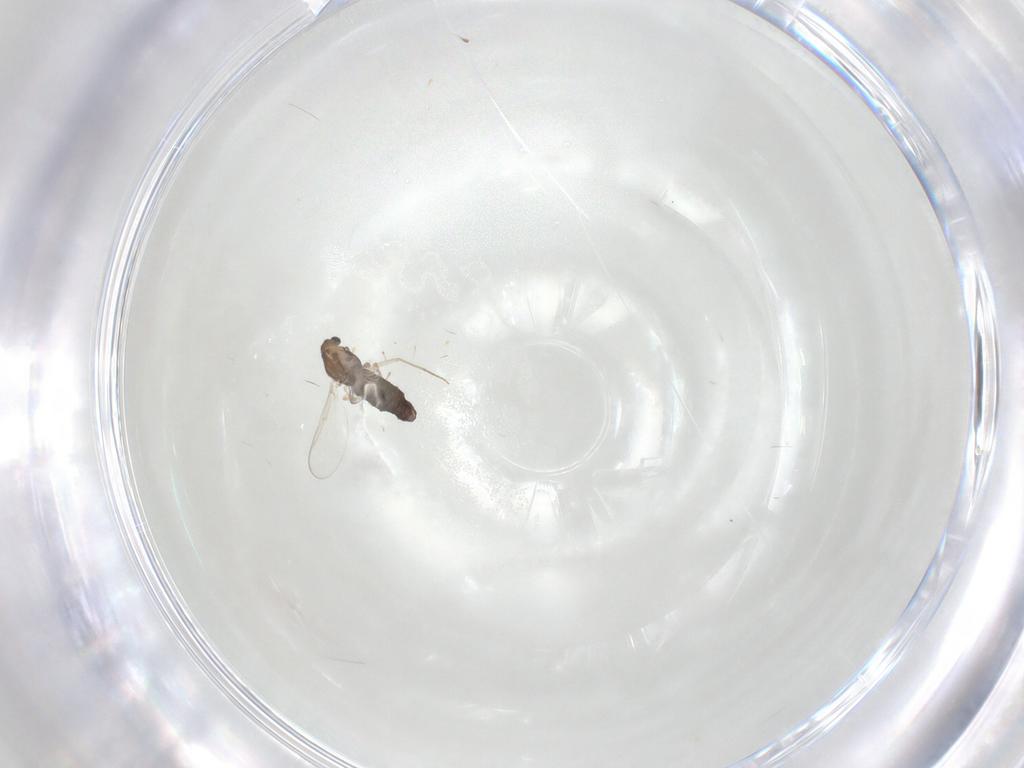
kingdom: Animalia
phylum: Arthropoda
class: Insecta
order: Diptera
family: Chironomidae
